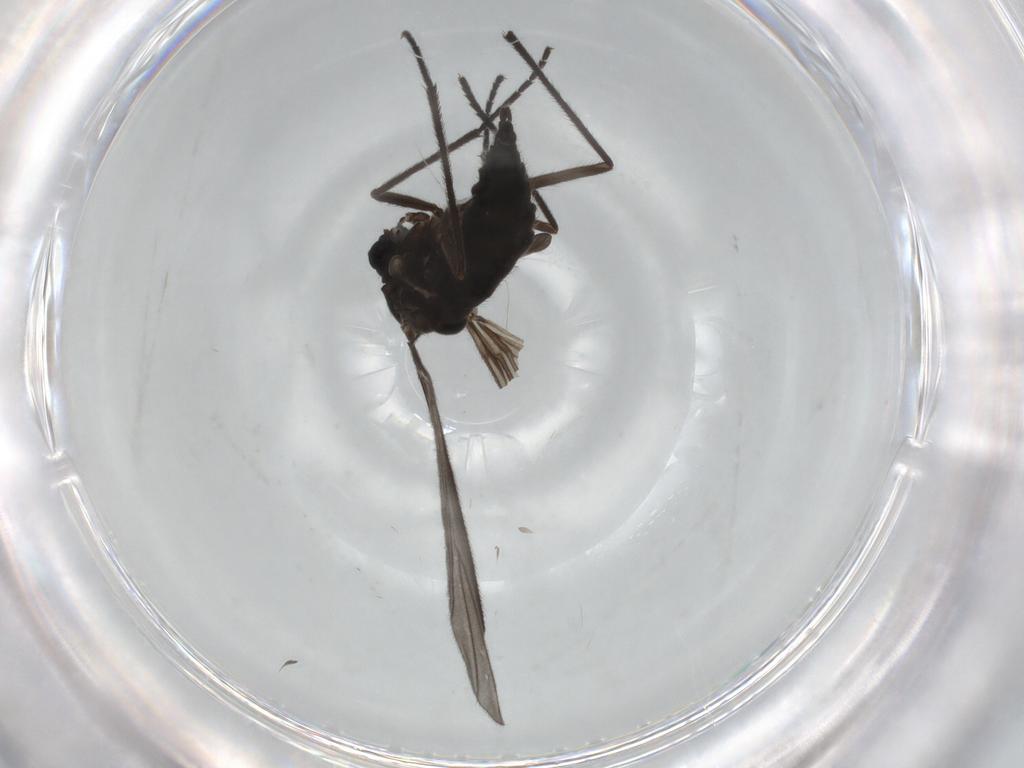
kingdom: Animalia
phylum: Arthropoda
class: Insecta
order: Diptera
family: Sciaridae
